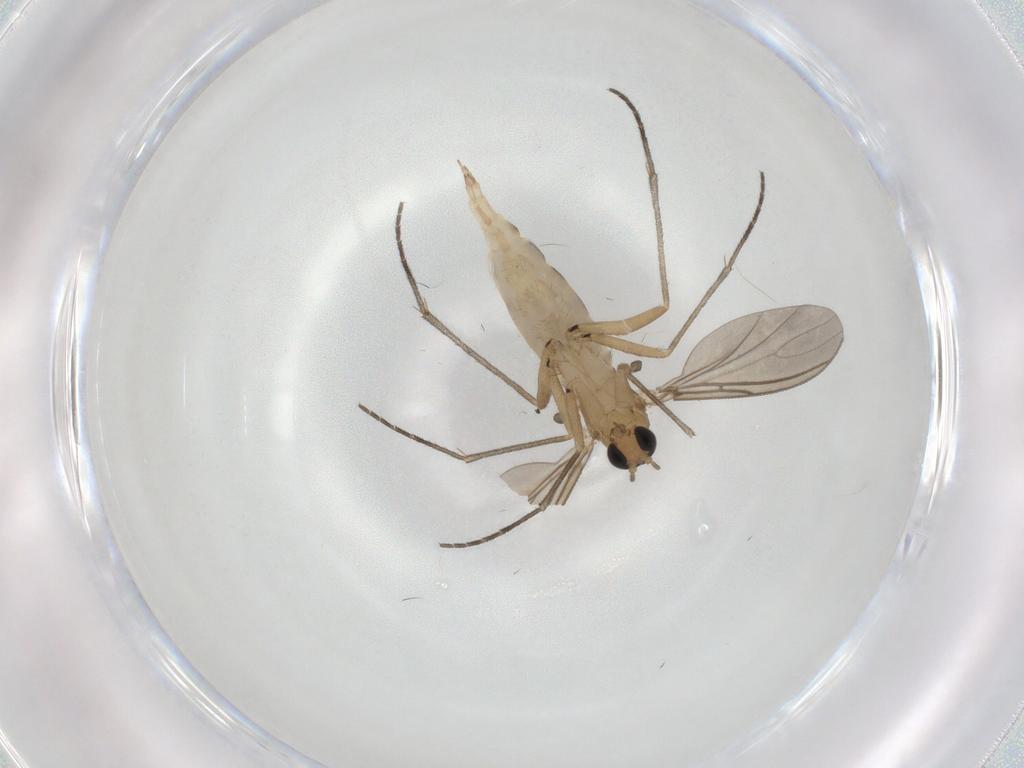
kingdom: Animalia
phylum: Arthropoda
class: Insecta
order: Diptera
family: Sciaridae
